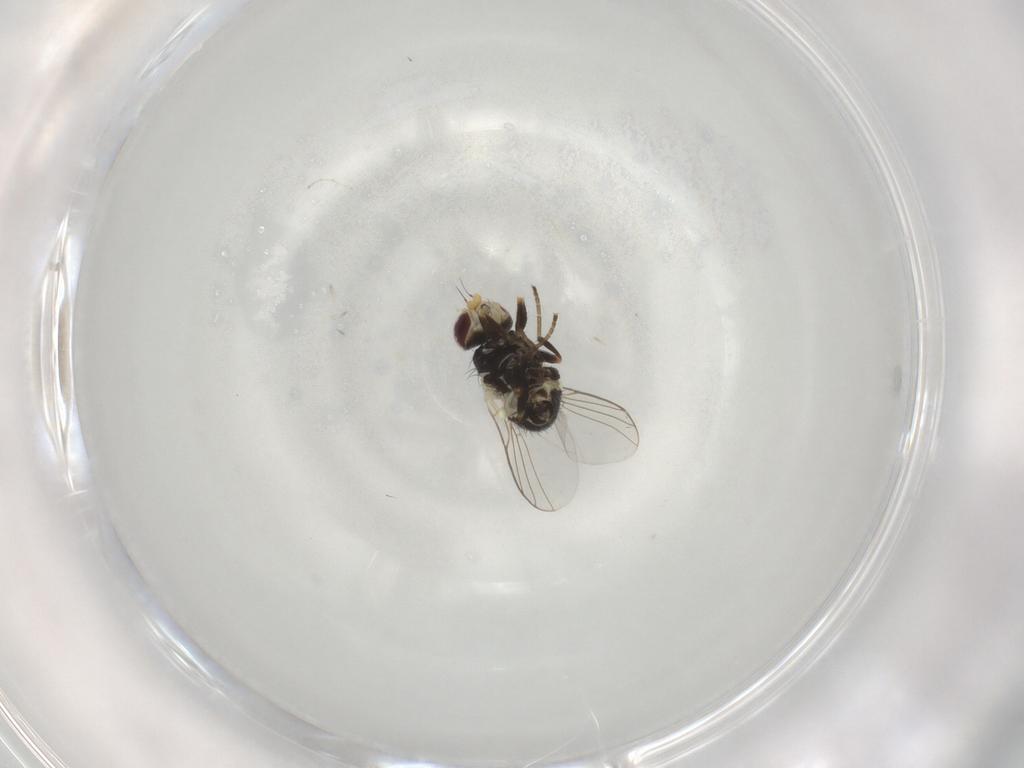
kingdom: Animalia
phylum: Arthropoda
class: Insecta
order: Diptera
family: Agromyzidae
